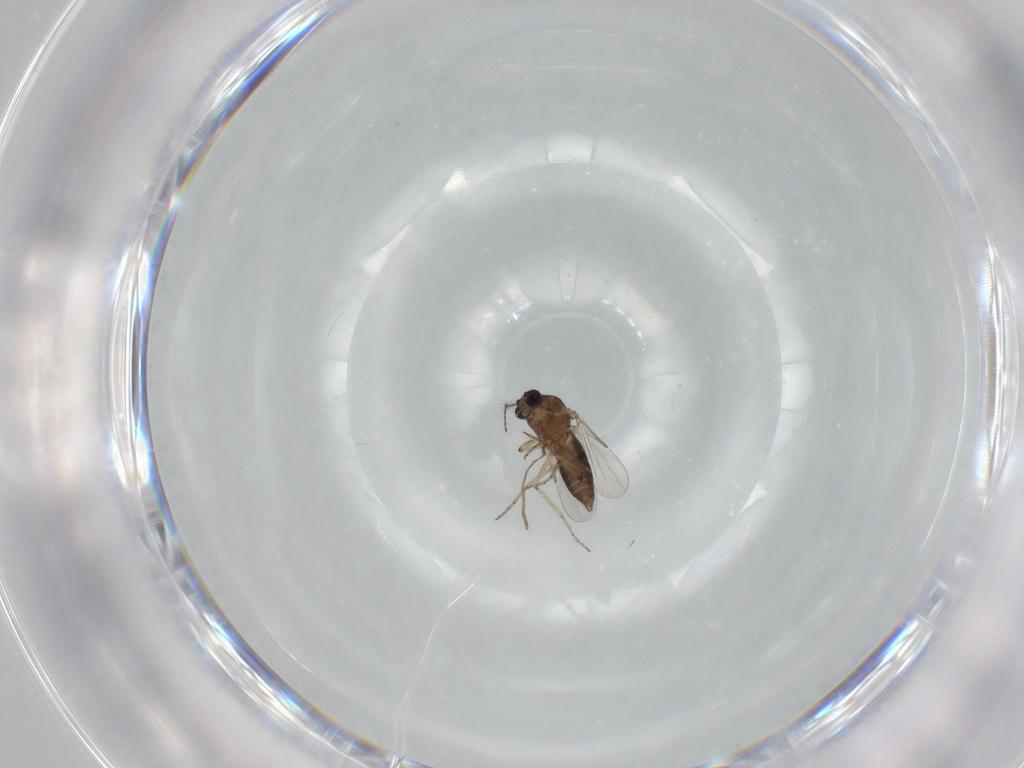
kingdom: Animalia
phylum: Arthropoda
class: Insecta
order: Diptera
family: Ceratopogonidae
